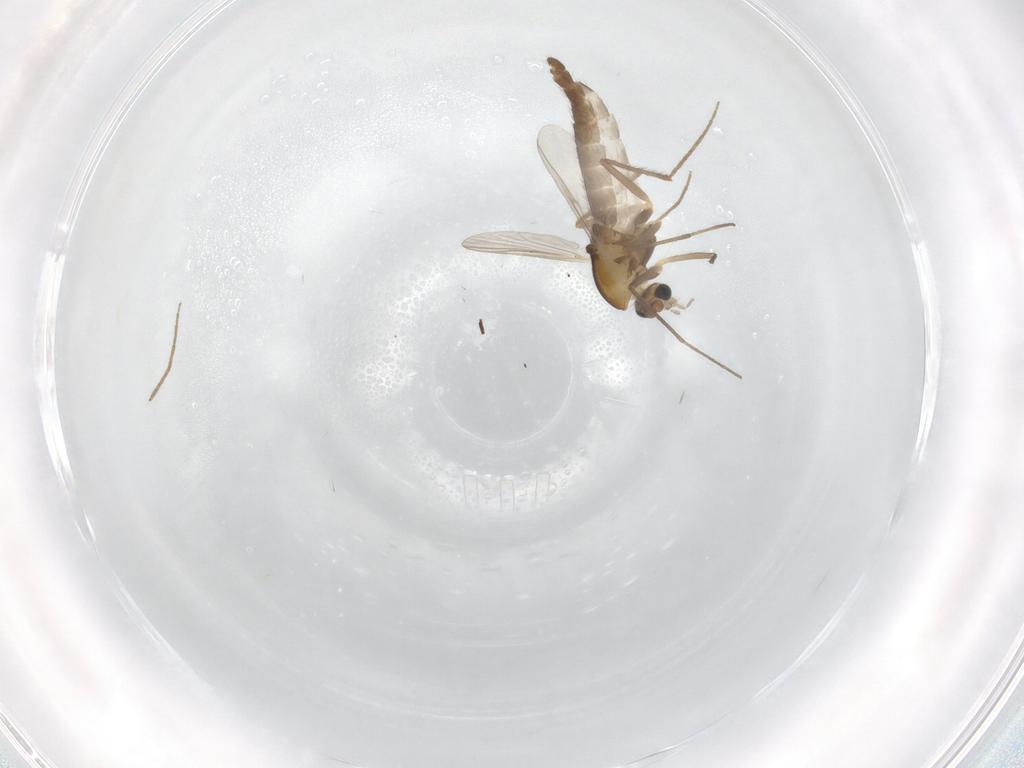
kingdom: Animalia
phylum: Arthropoda
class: Insecta
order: Diptera
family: Chironomidae
